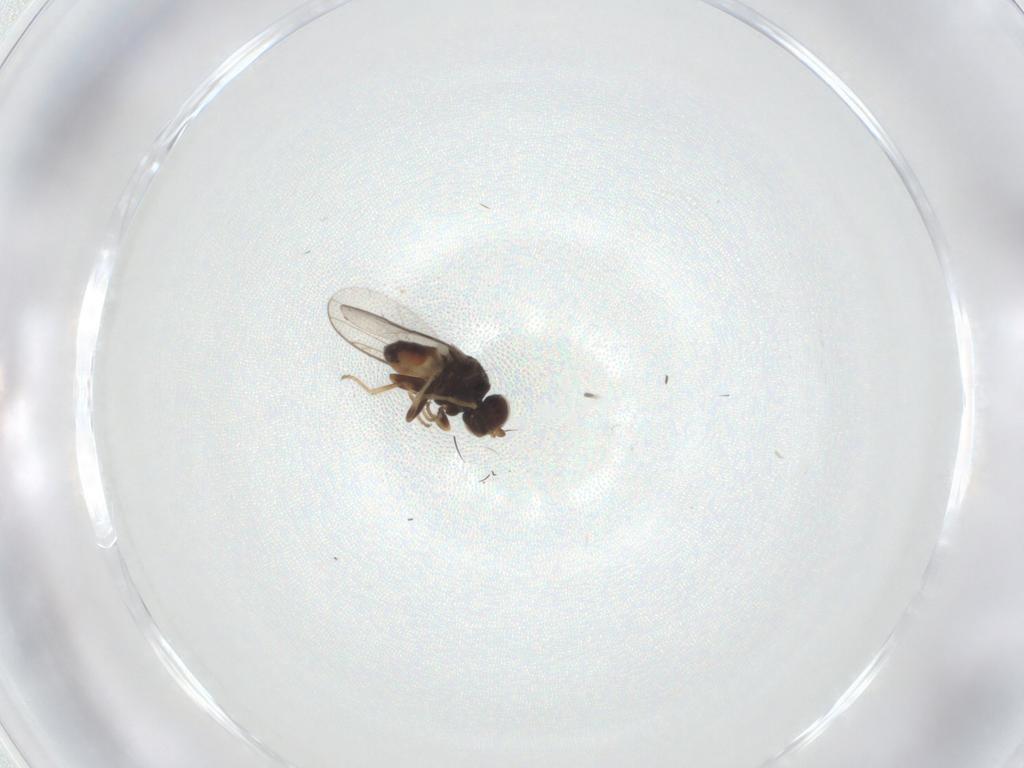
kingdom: Animalia
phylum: Arthropoda
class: Insecta
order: Diptera
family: Chloropidae
